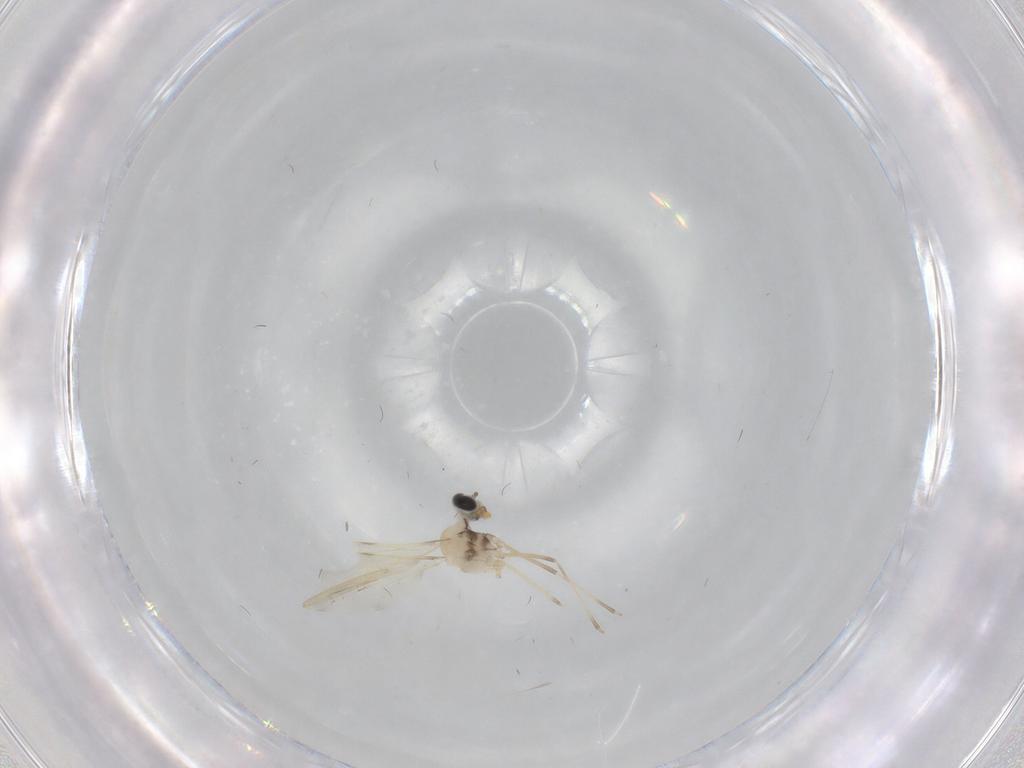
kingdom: Animalia
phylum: Arthropoda
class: Insecta
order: Diptera
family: Cecidomyiidae
